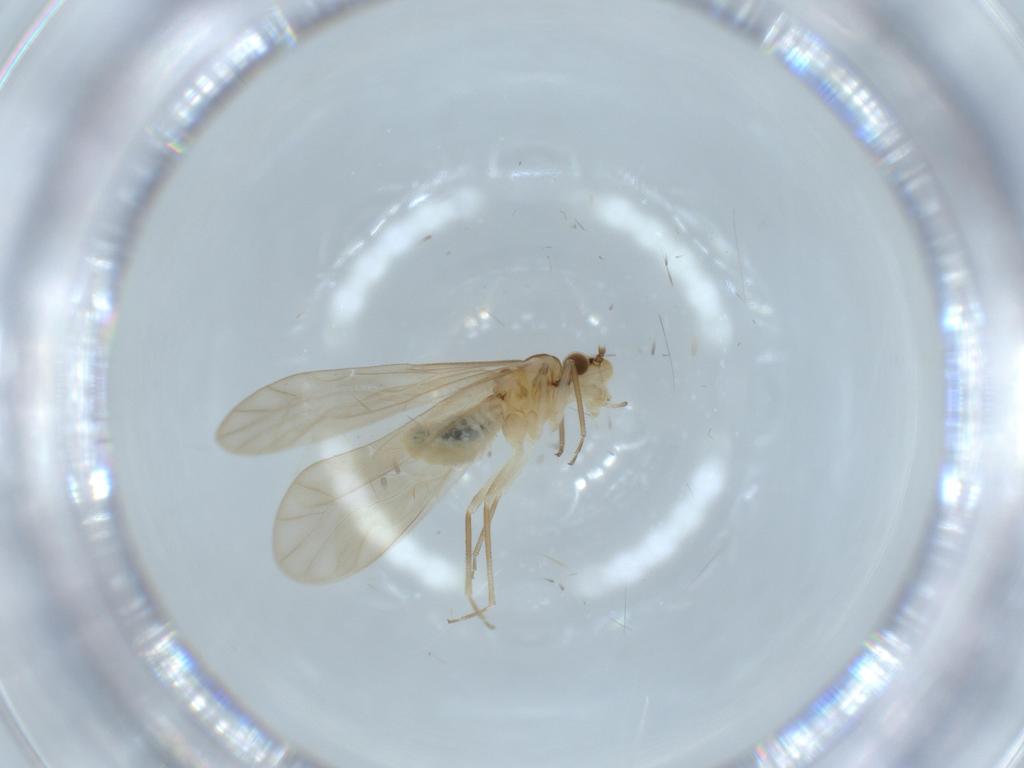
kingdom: Animalia
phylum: Arthropoda
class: Insecta
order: Psocodea
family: Caeciliusidae
